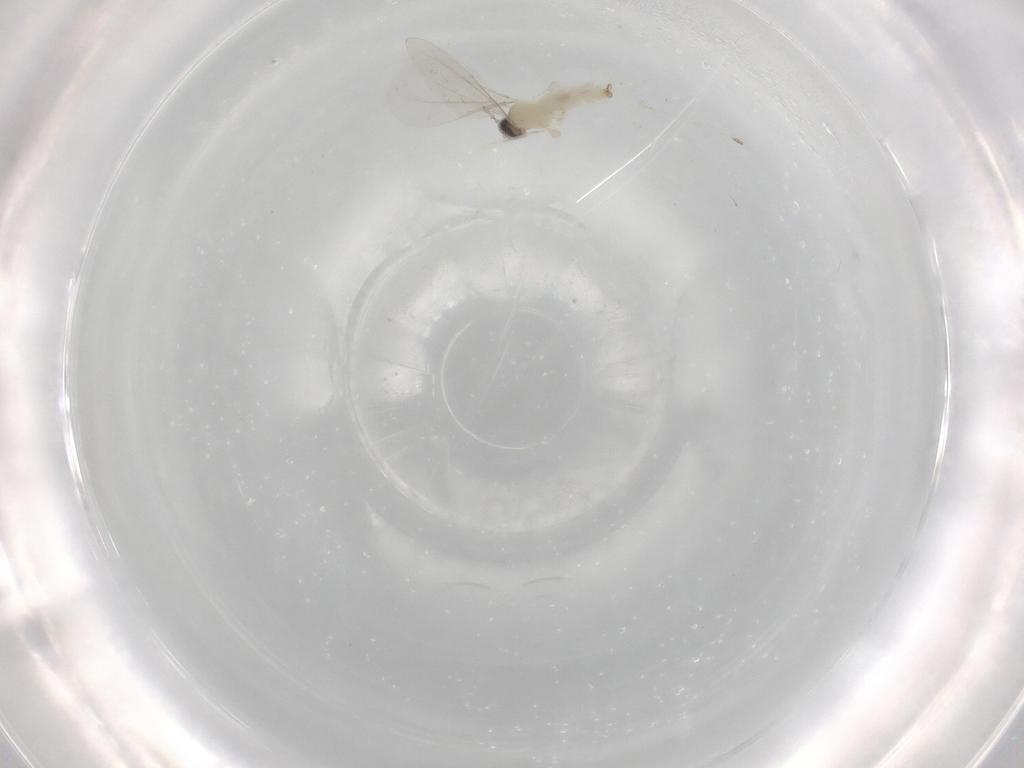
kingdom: Animalia
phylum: Arthropoda
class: Insecta
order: Diptera
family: Cecidomyiidae
